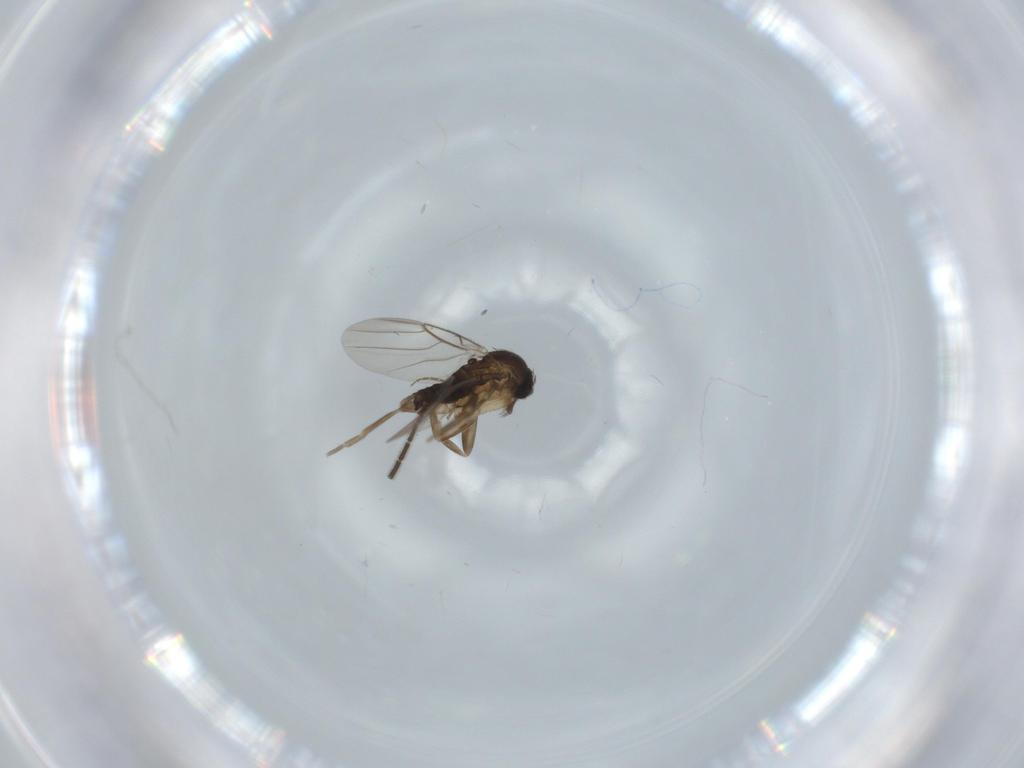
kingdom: Animalia
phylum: Arthropoda
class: Insecta
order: Diptera
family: Phoridae
